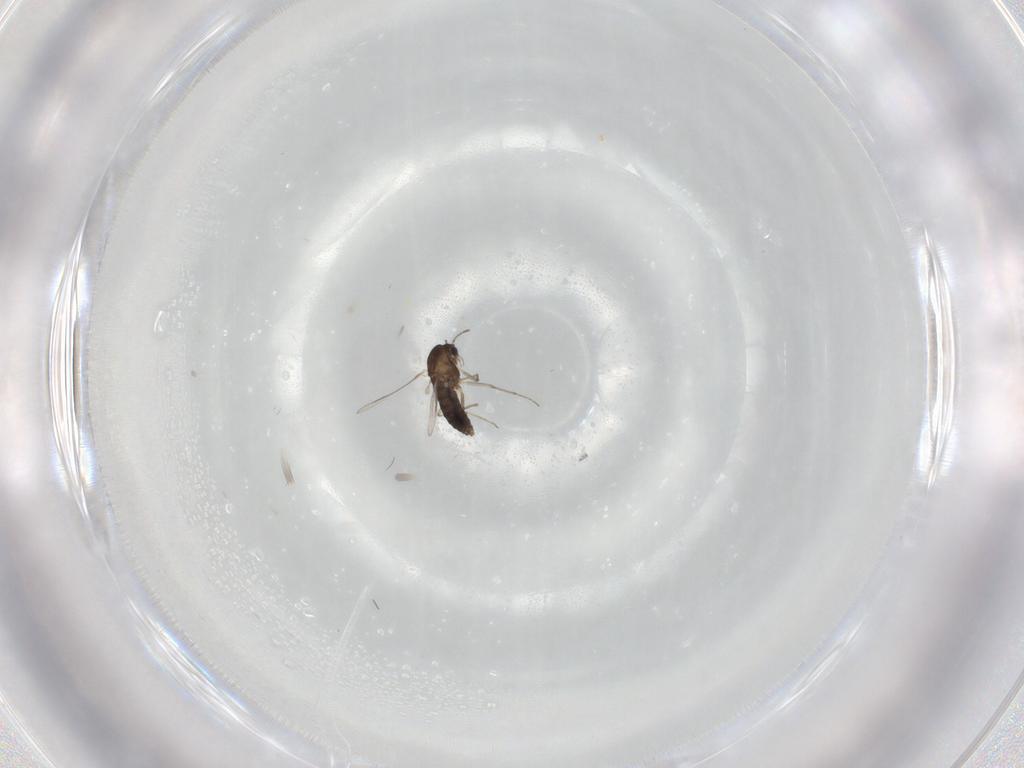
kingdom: Animalia
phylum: Arthropoda
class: Insecta
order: Diptera
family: Chironomidae
